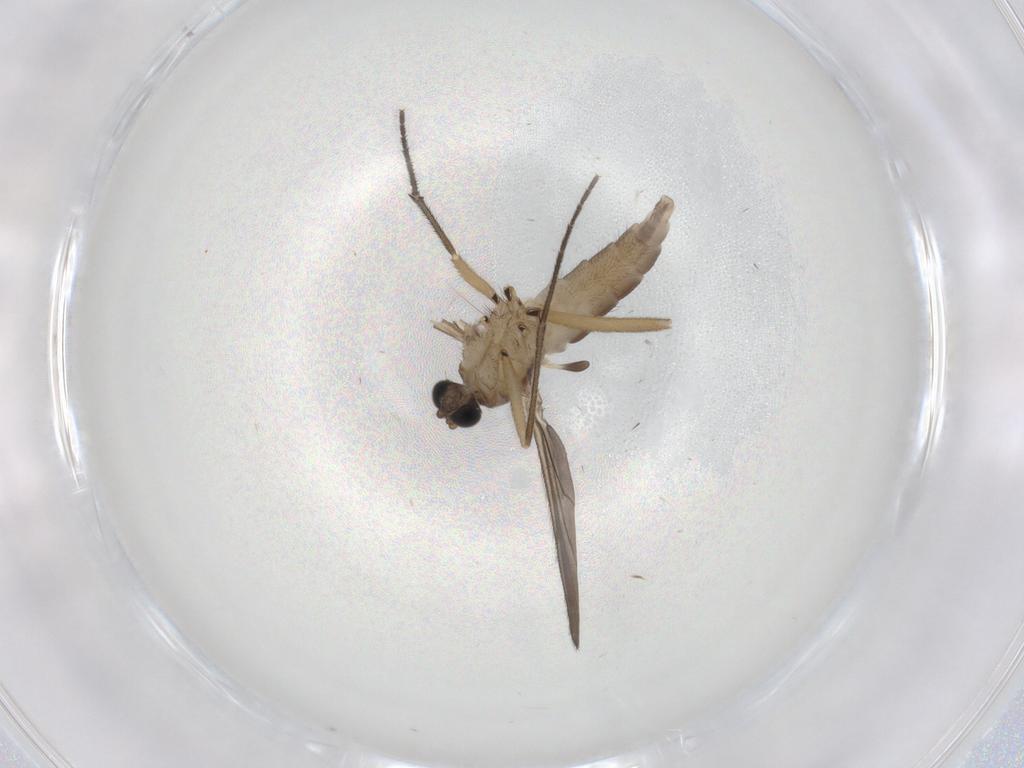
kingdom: Animalia
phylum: Arthropoda
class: Insecta
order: Diptera
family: Sciaridae
